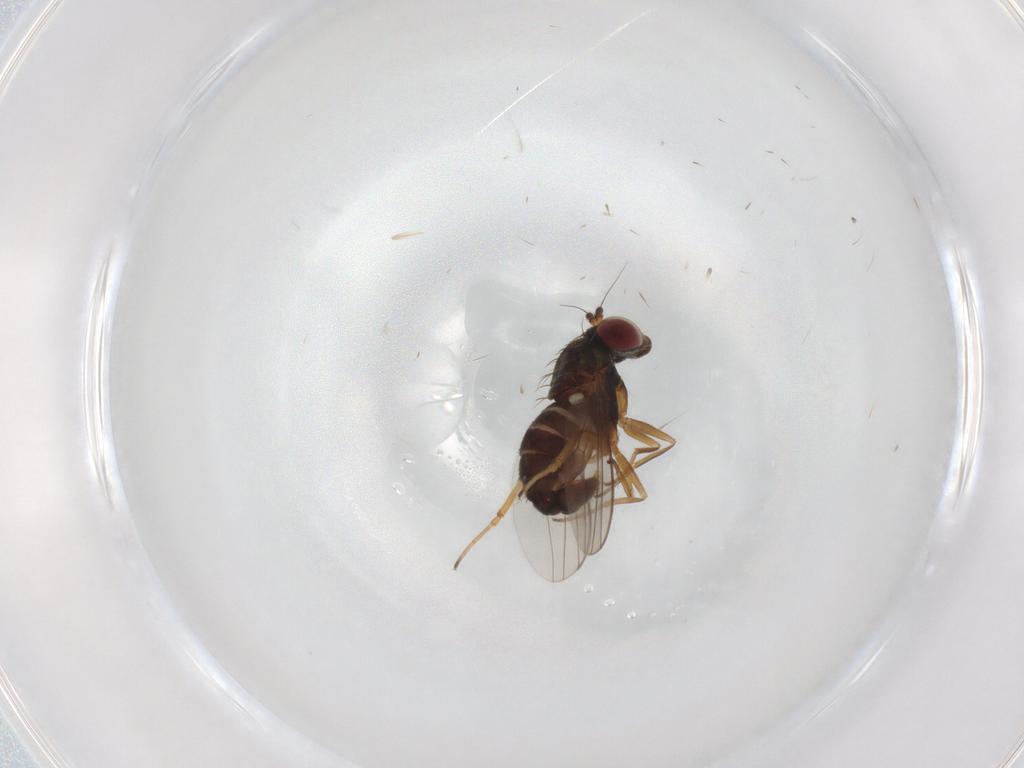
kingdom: Animalia
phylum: Arthropoda
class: Insecta
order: Diptera
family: Dolichopodidae
